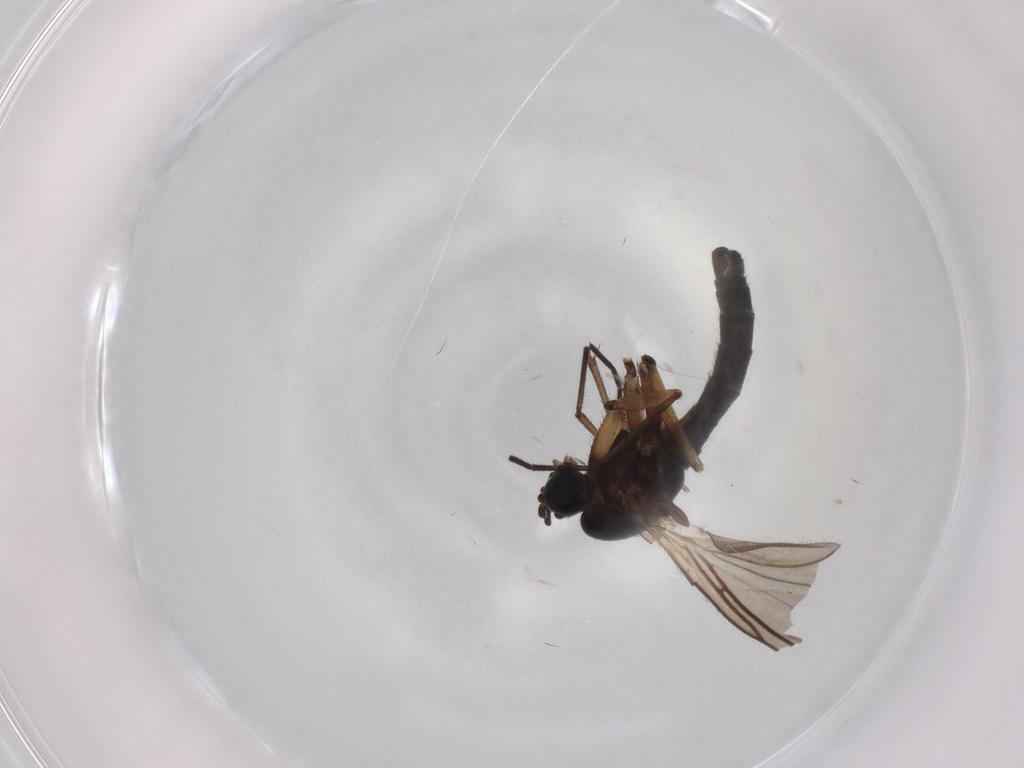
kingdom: Animalia
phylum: Arthropoda
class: Insecta
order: Diptera
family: Sciaridae
